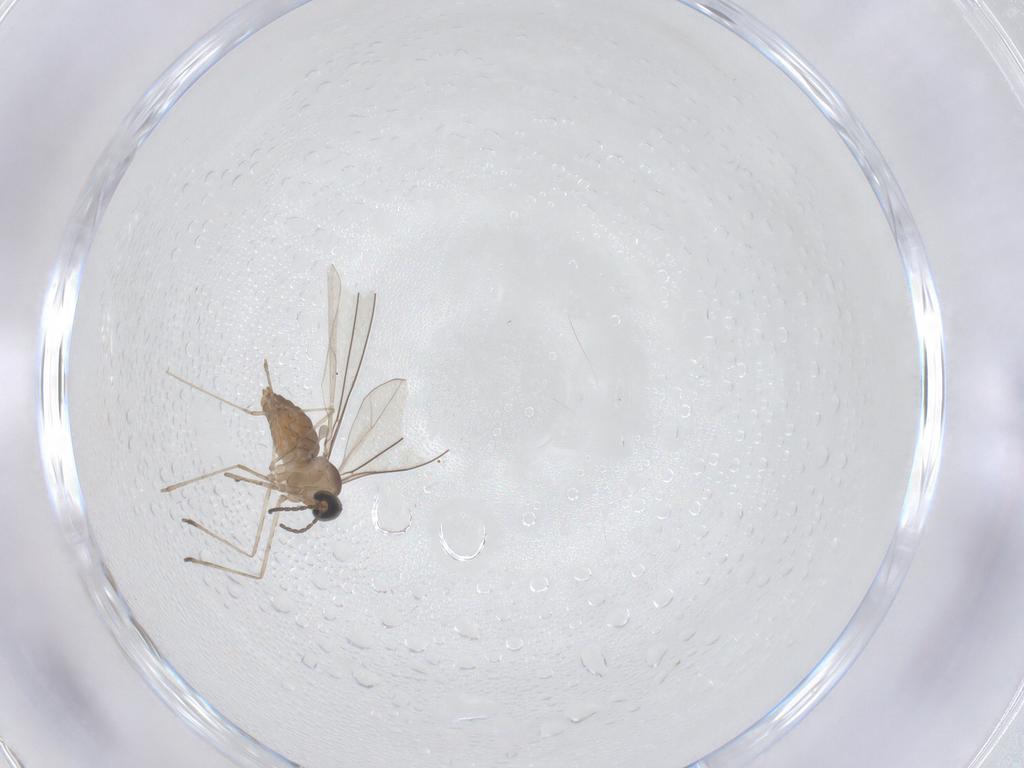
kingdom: Animalia
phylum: Arthropoda
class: Insecta
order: Diptera
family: Cecidomyiidae
